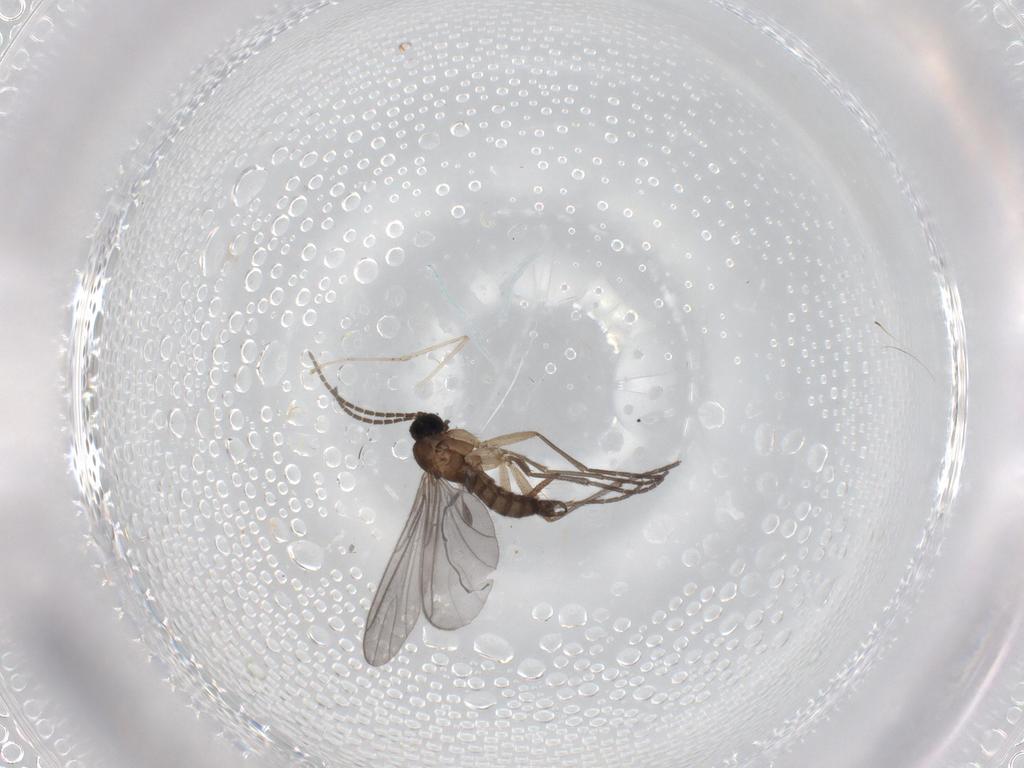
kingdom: Animalia
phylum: Arthropoda
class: Insecta
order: Diptera
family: Sciaridae
